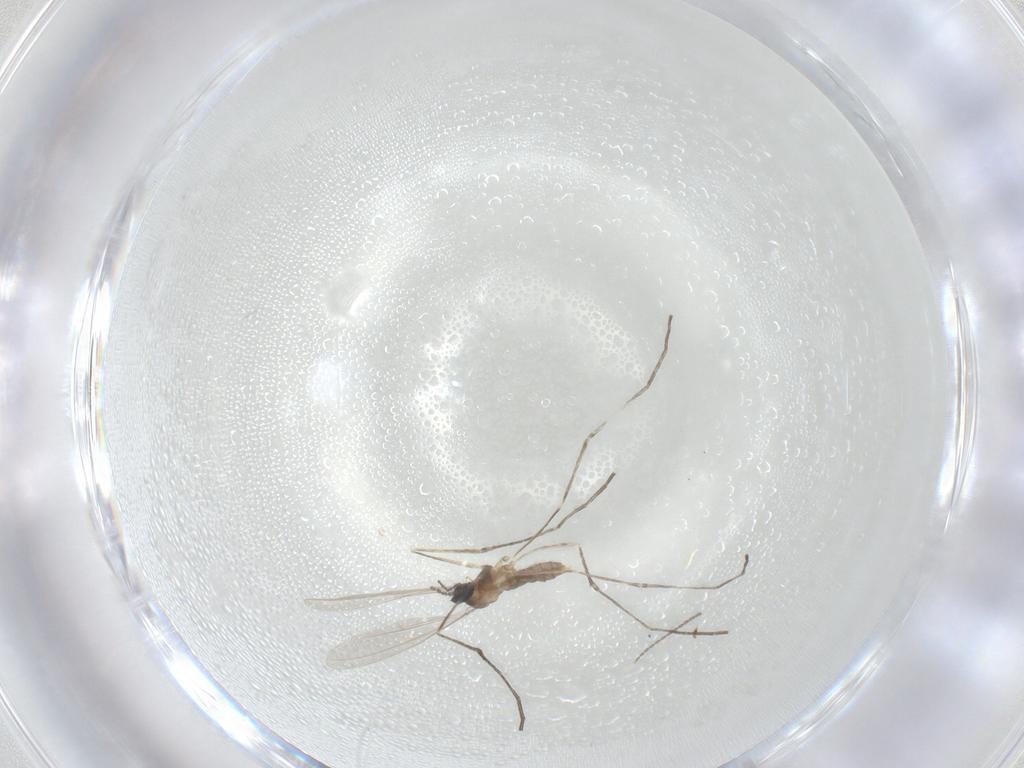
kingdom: Animalia
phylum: Arthropoda
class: Insecta
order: Diptera
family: Cecidomyiidae
